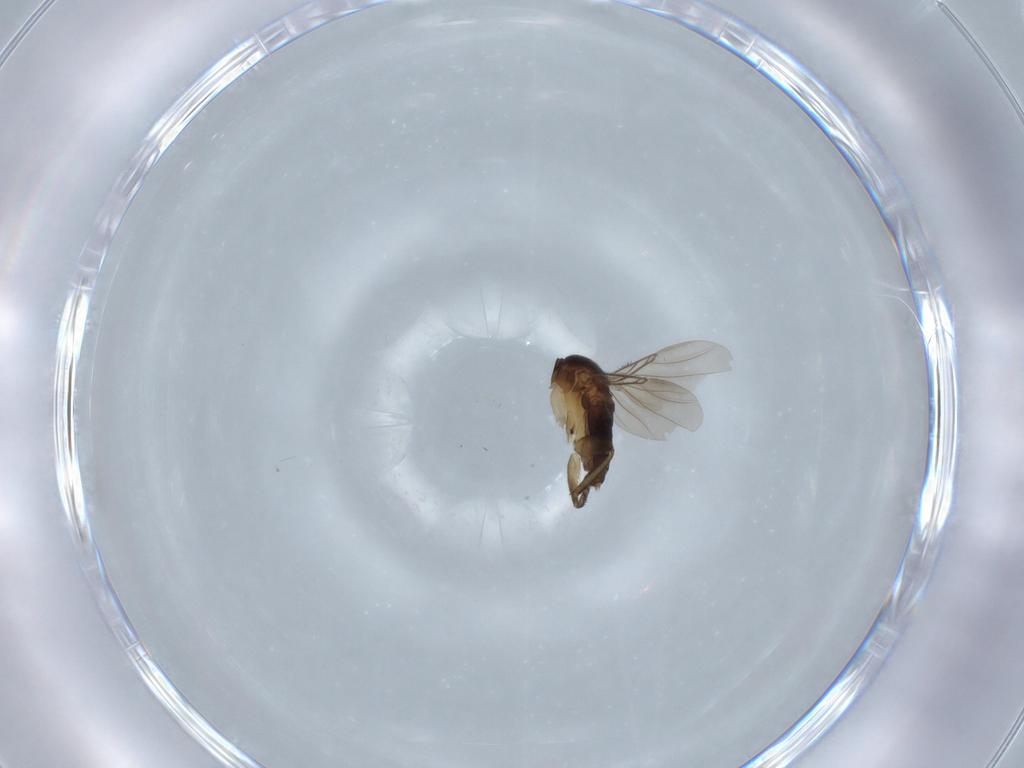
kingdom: Animalia
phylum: Arthropoda
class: Insecta
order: Diptera
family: Phoridae
